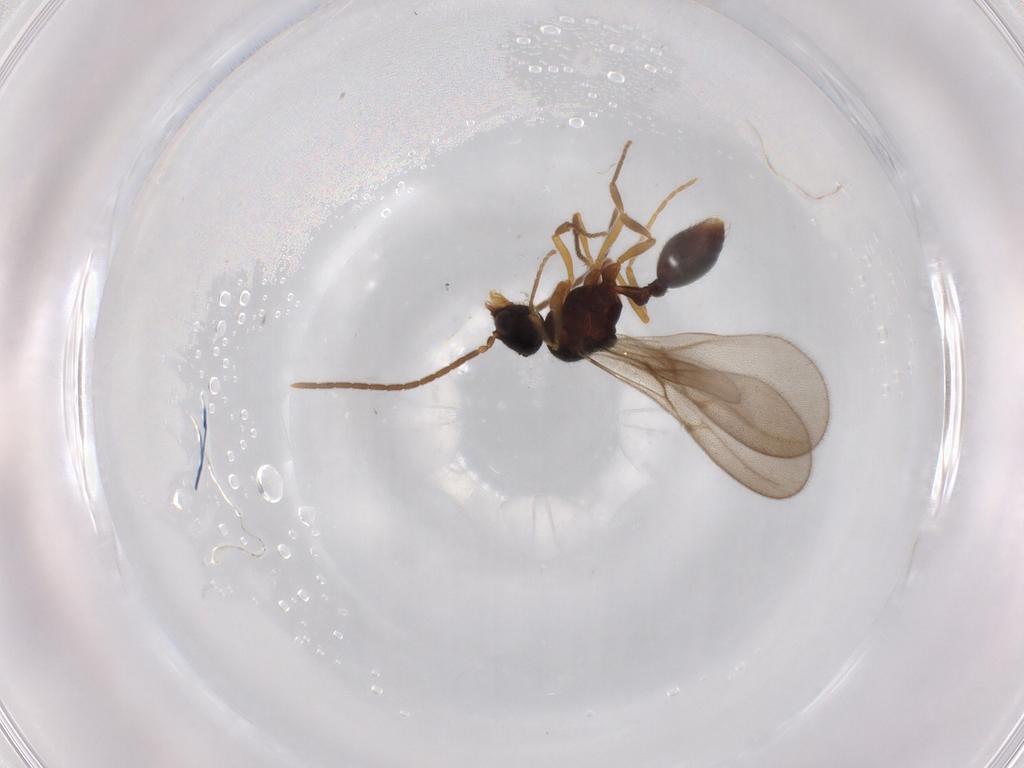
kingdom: Animalia
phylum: Arthropoda
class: Insecta
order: Hymenoptera
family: Formicidae
